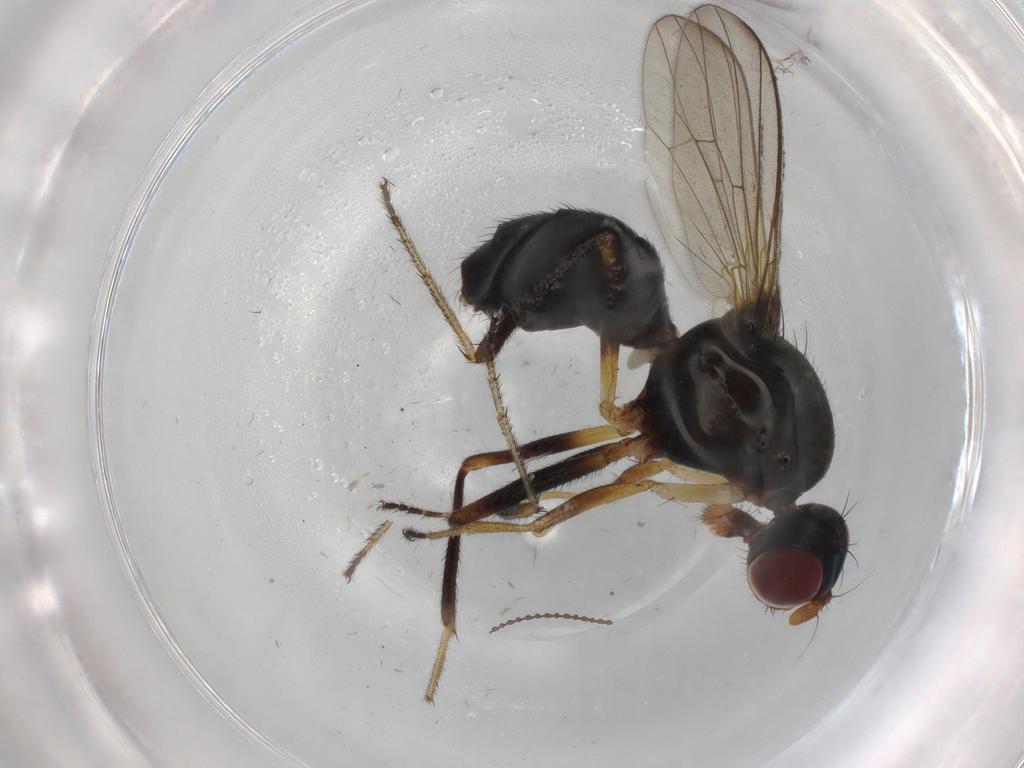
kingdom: Animalia
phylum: Arthropoda
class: Insecta
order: Diptera
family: Sepsidae
